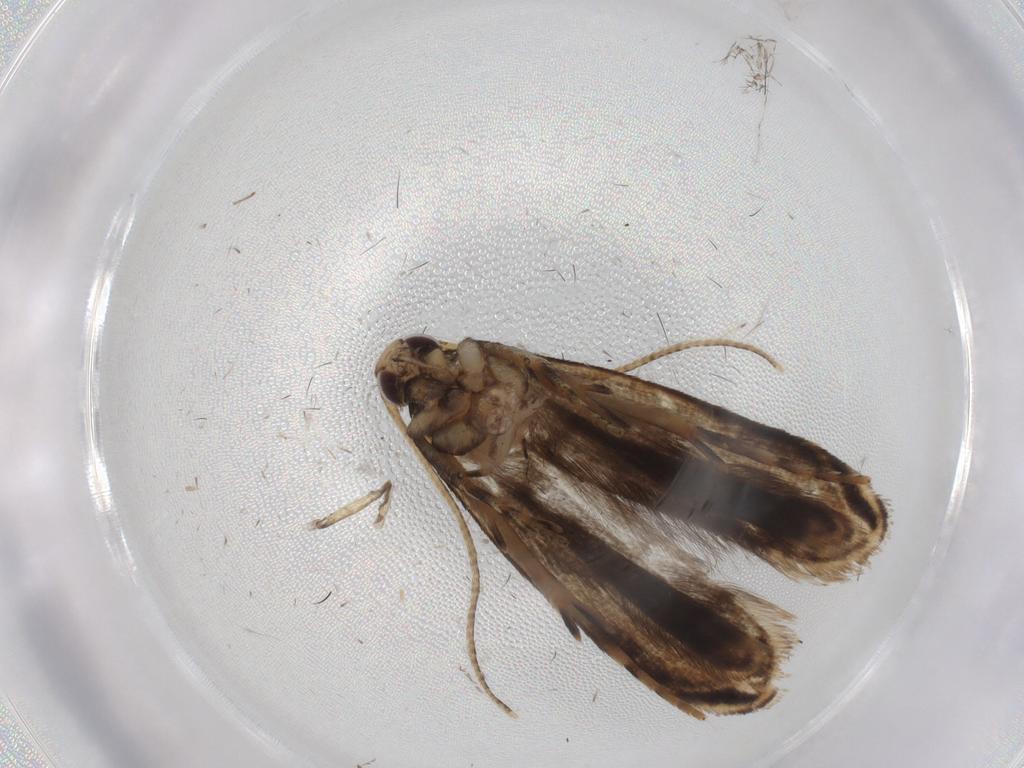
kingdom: Animalia
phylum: Arthropoda
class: Insecta
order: Lepidoptera
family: Gelechiidae
